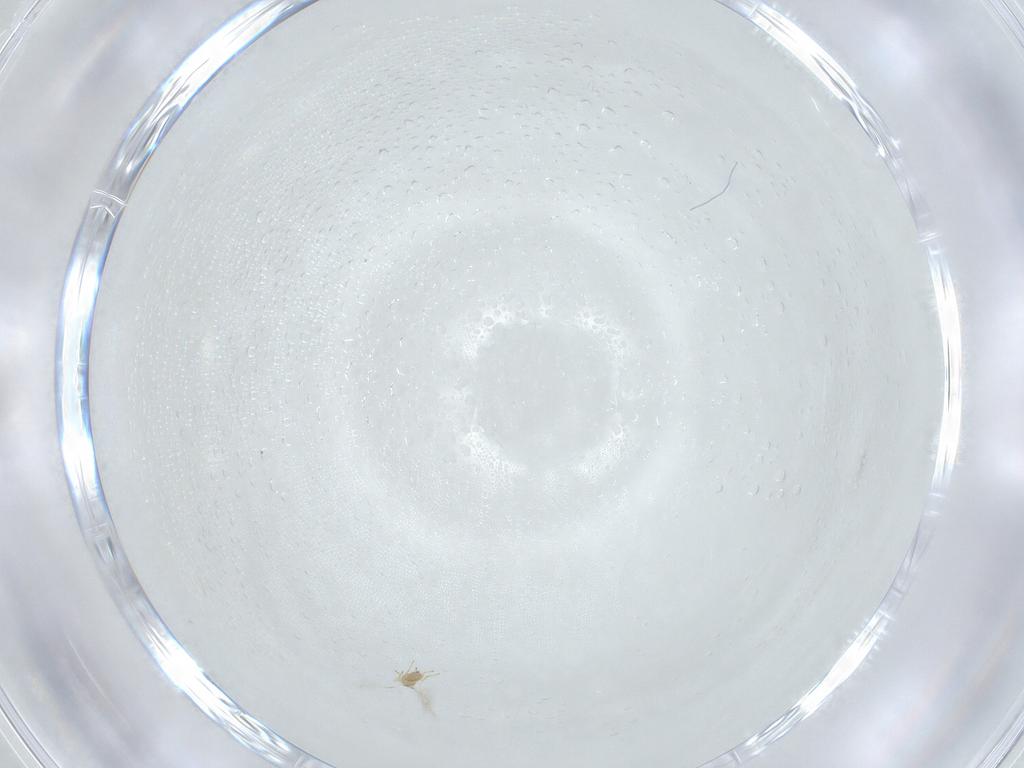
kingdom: Animalia
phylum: Arthropoda
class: Insecta
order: Hymenoptera
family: Mymaridae
